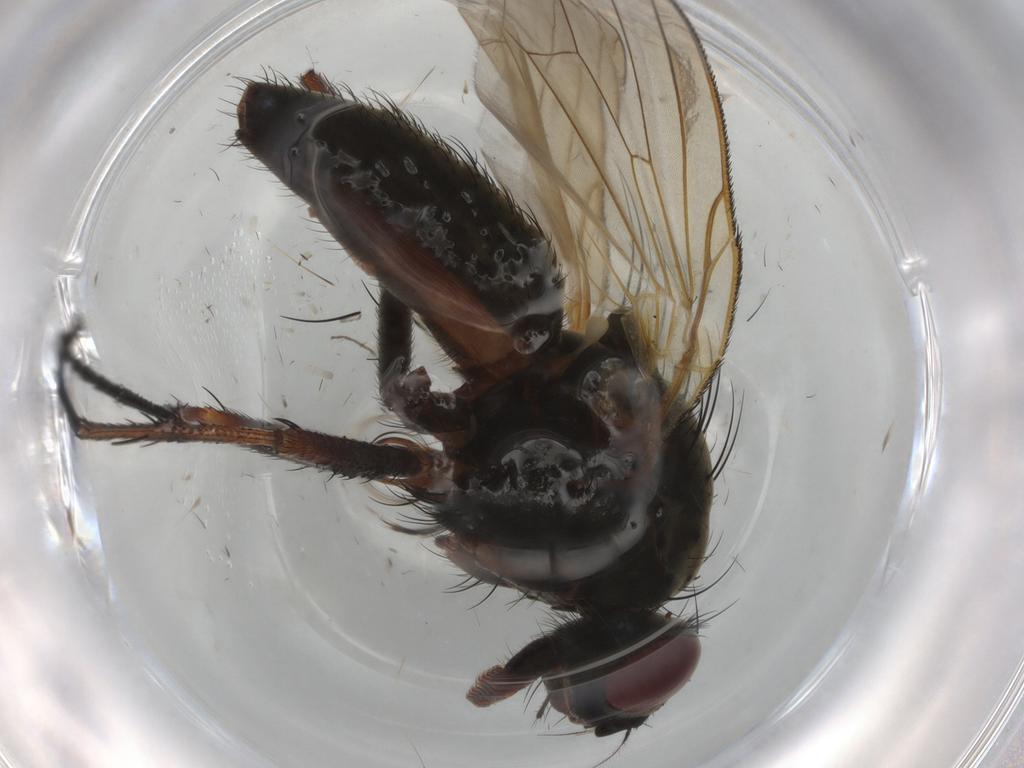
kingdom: Animalia
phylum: Arthropoda
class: Insecta
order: Diptera
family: Anthomyiidae
